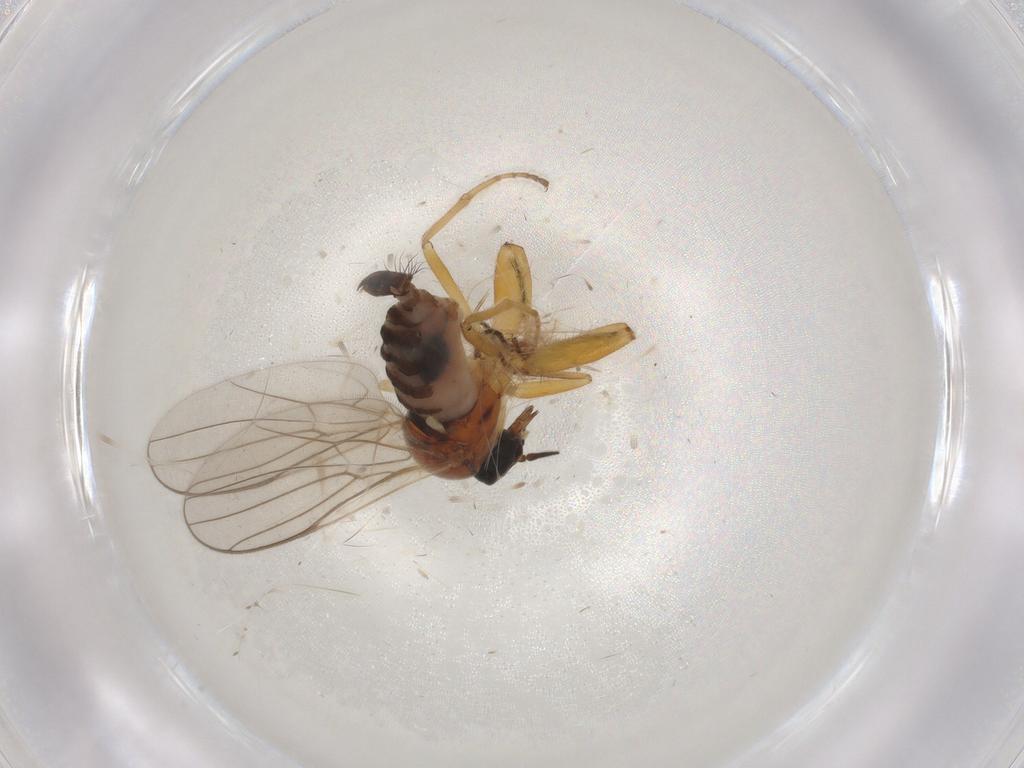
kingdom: Animalia
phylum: Arthropoda
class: Insecta
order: Diptera
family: Hybotidae
